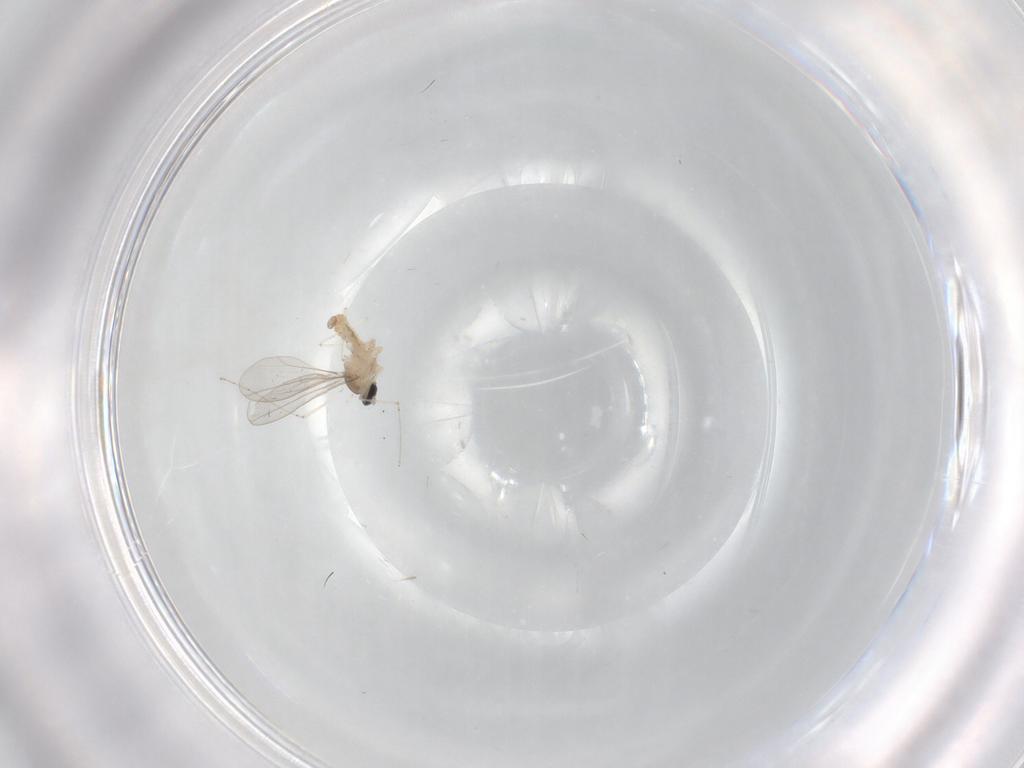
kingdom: Animalia
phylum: Arthropoda
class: Insecta
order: Diptera
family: Cecidomyiidae
